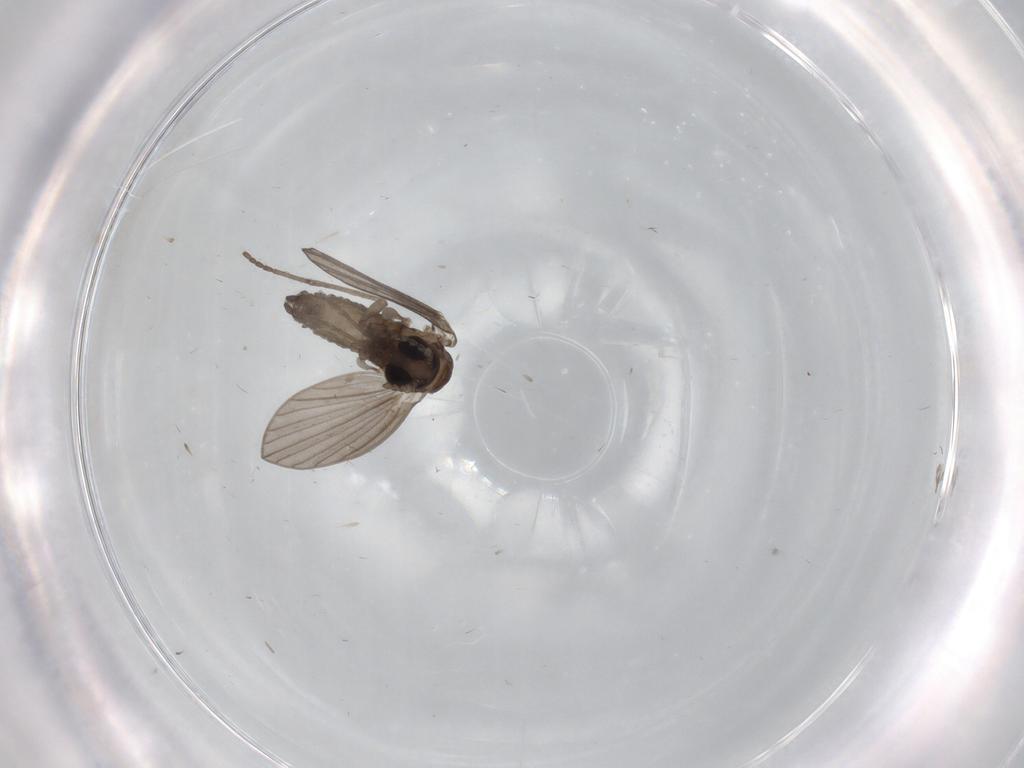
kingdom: Animalia
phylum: Arthropoda
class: Insecta
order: Diptera
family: Psychodidae
